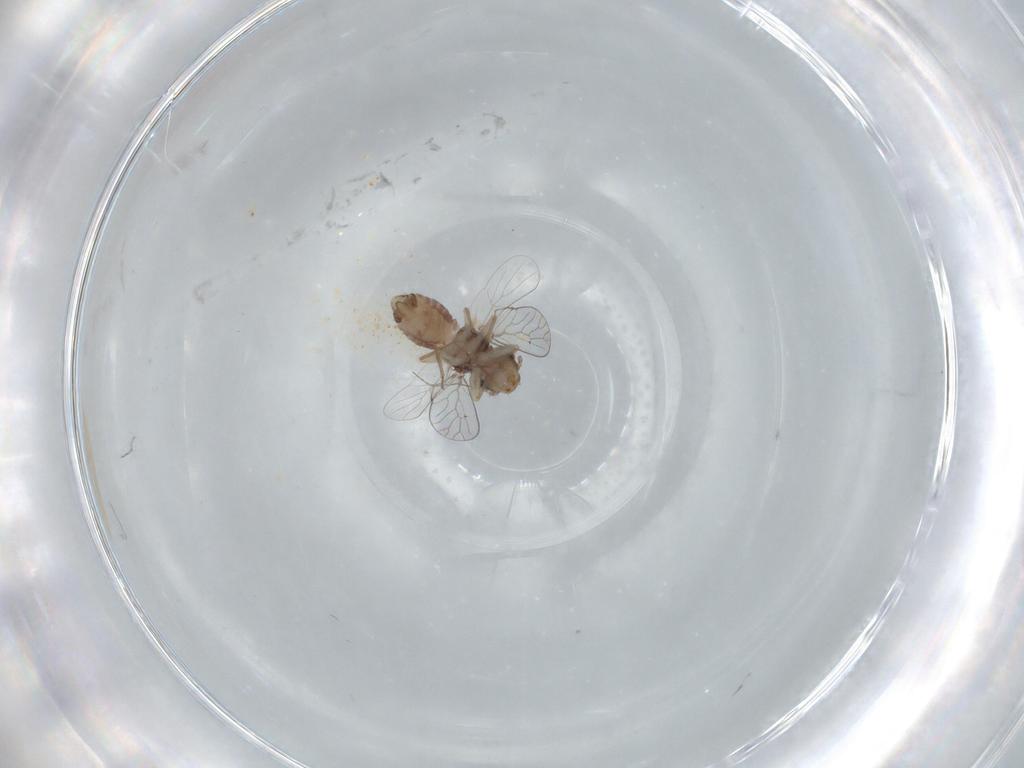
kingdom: Animalia
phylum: Arthropoda
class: Insecta
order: Psocodea
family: Psoquillidae
